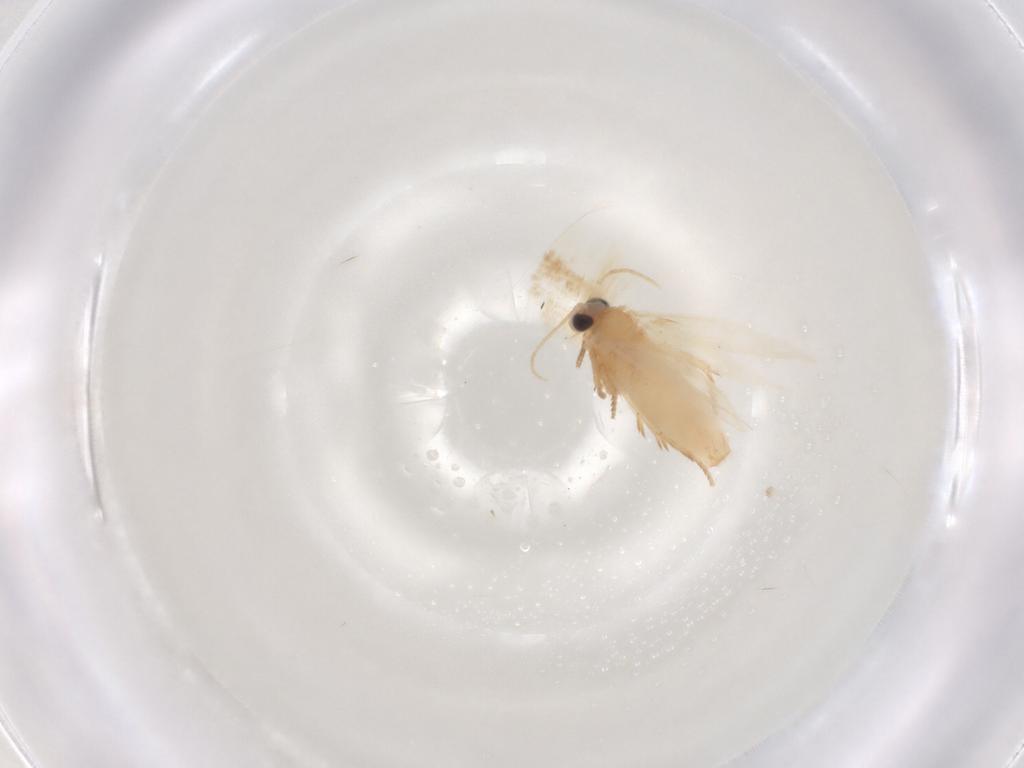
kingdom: Animalia
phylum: Arthropoda
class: Insecta
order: Lepidoptera
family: Nepticulidae
